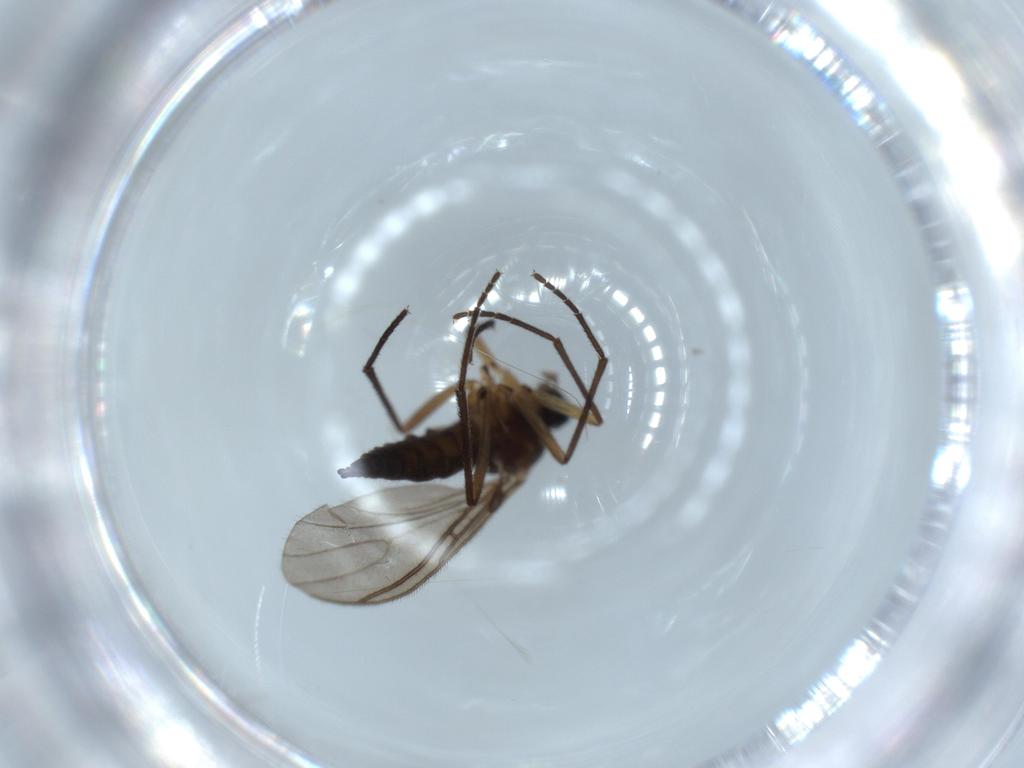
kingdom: Animalia
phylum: Arthropoda
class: Insecta
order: Diptera
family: Sciaridae
